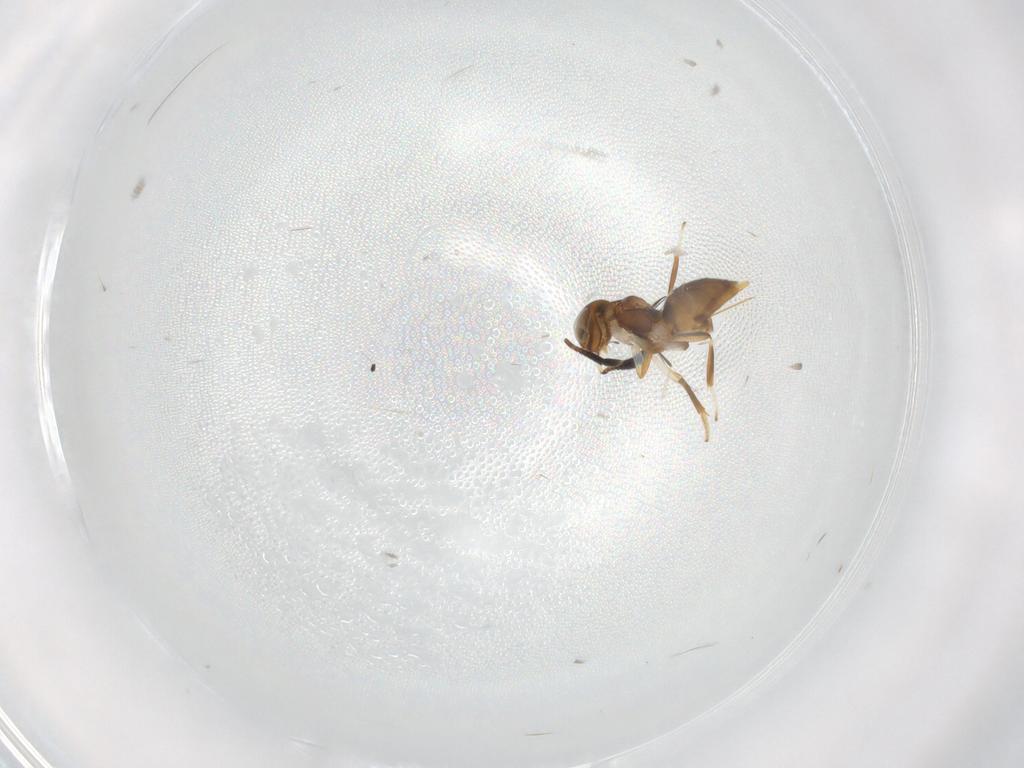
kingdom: Animalia
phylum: Arthropoda
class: Insecta
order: Hymenoptera
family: Encyrtidae
